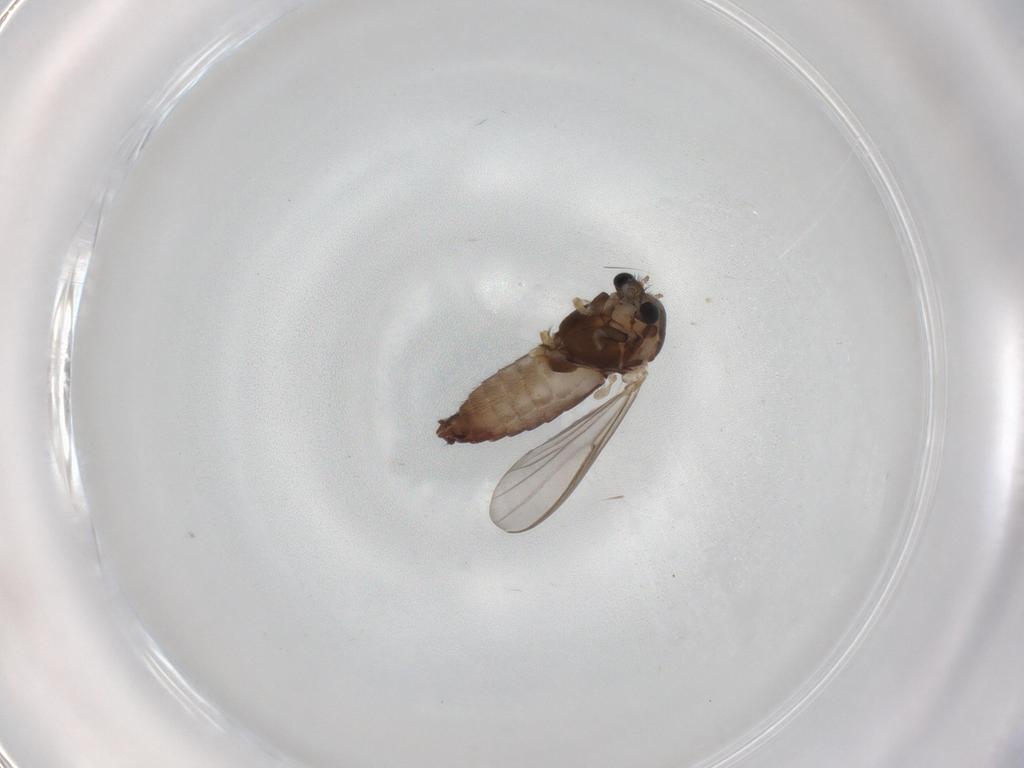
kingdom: Animalia
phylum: Arthropoda
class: Insecta
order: Diptera
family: Chironomidae
